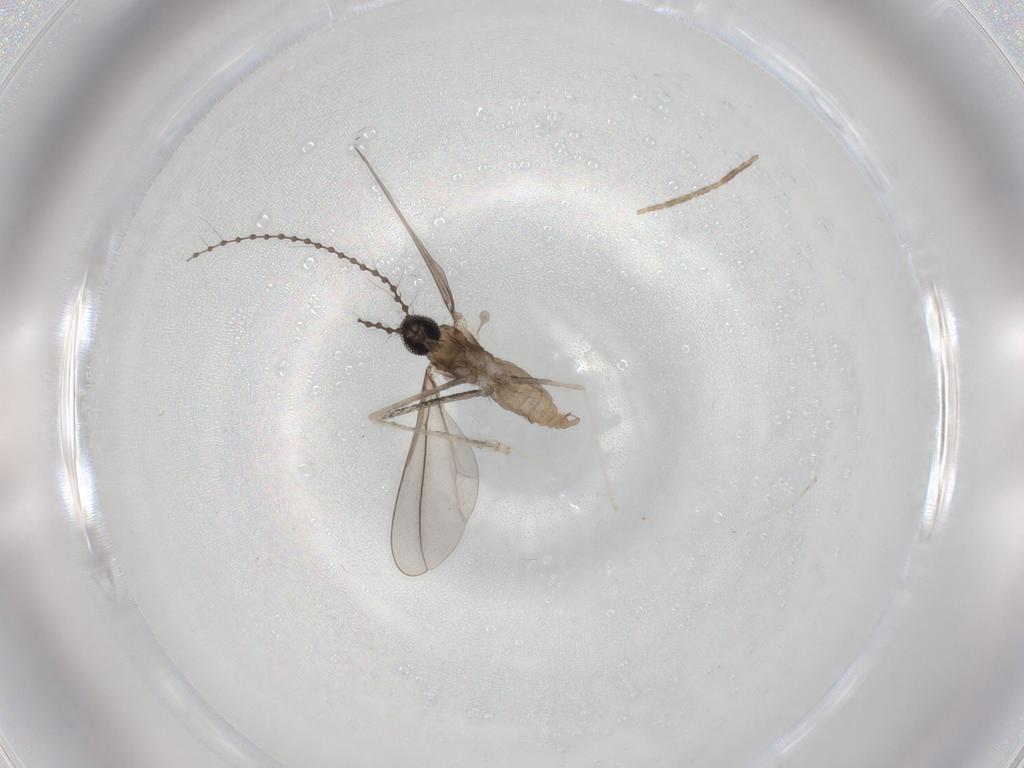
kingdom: Animalia
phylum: Arthropoda
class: Insecta
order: Diptera
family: Cecidomyiidae
